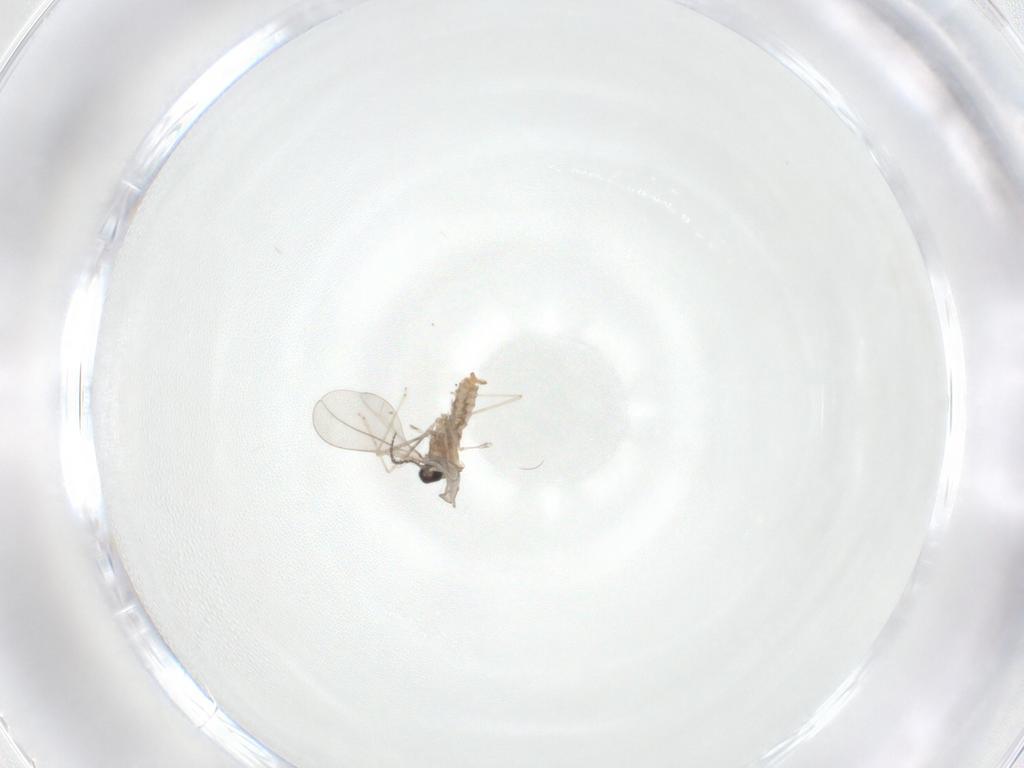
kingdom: Animalia
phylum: Arthropoda
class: Insecta
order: Diptera
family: Cecidomyiidae
